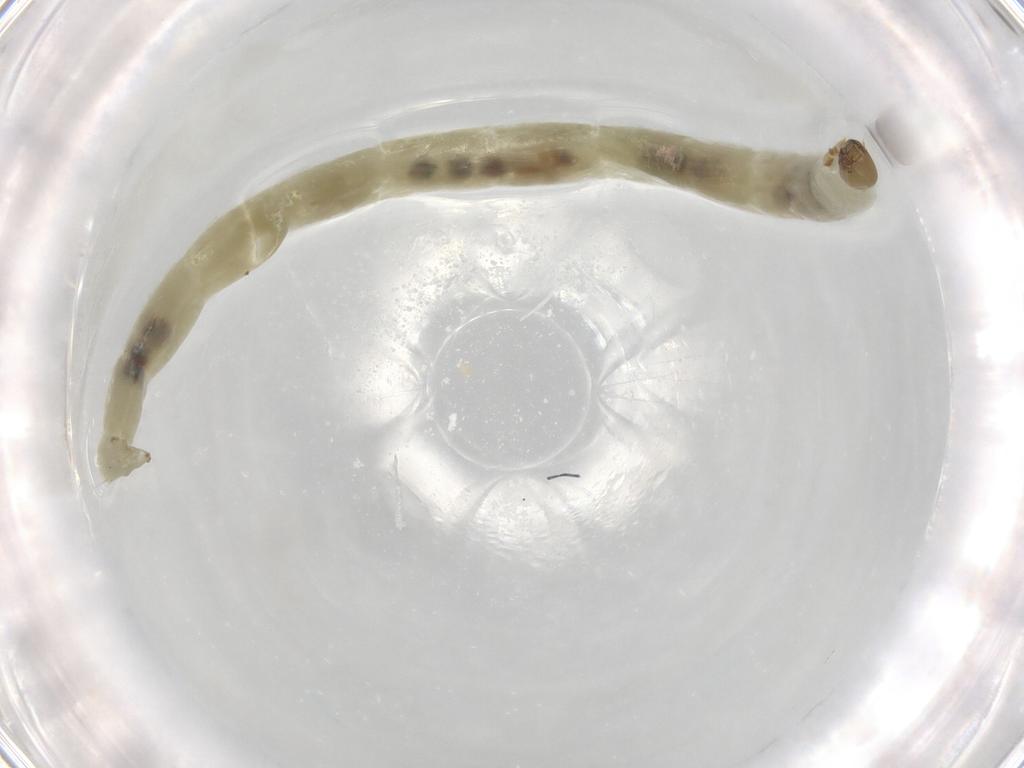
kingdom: Animalia
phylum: Arthropoda
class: Insecta
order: Diptera
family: Chironomidae
